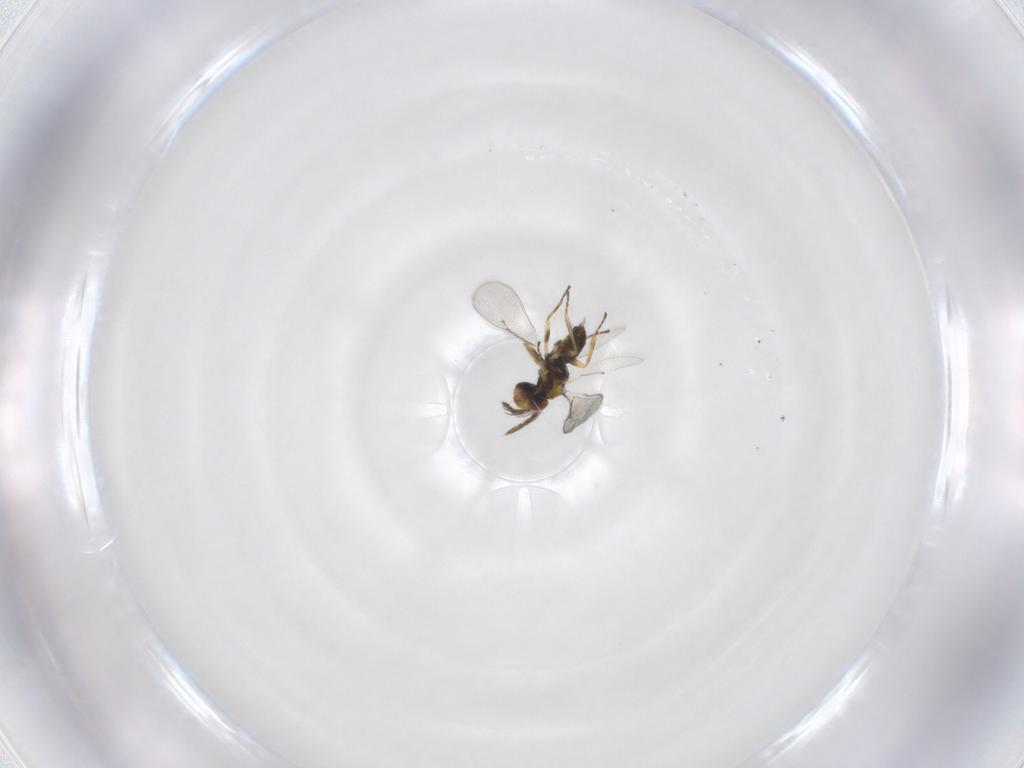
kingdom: Animalia
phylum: Arthropoda
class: Insecta
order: Hymenoptera
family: Eulophidae
